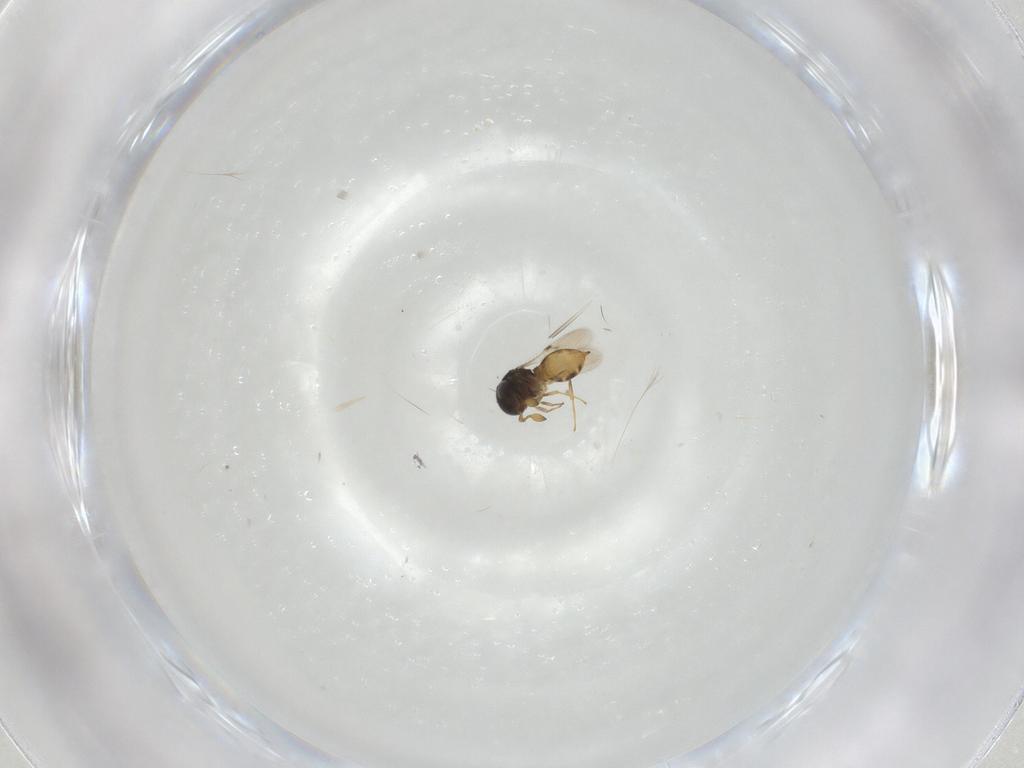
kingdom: Animalia
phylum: Arthropoda
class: Insecta
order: Hymenoptera
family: Scelionidae
